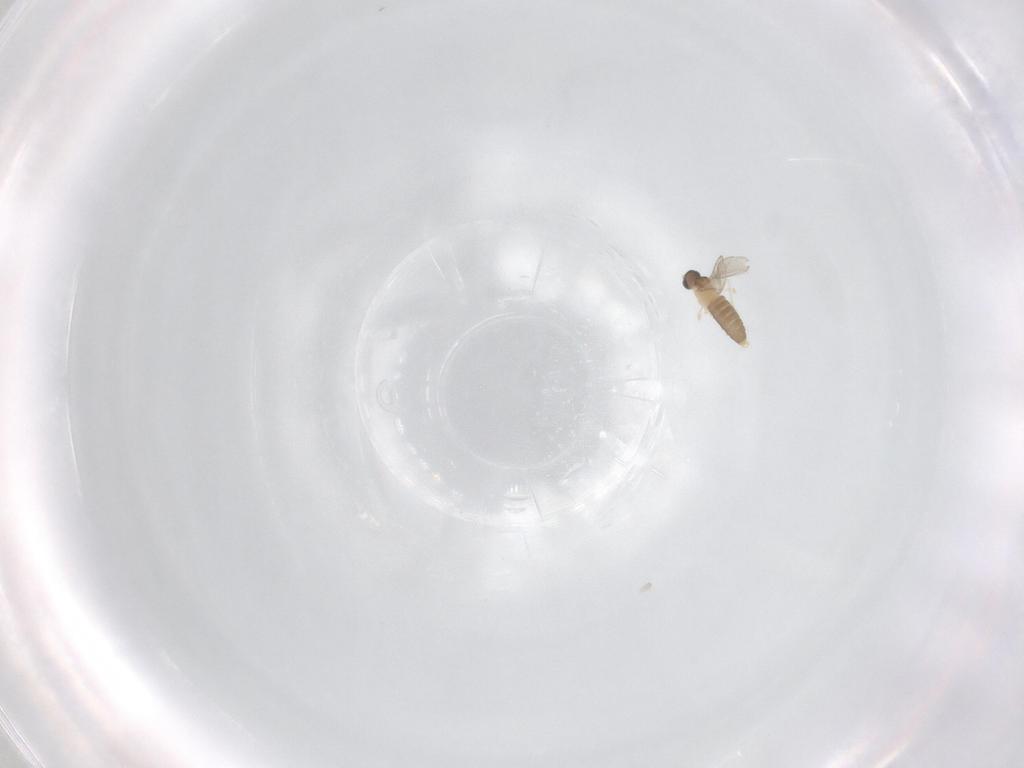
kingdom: Animalia
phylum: Arthropoda
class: Insecta
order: Diptera
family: Cecidomyiidae
